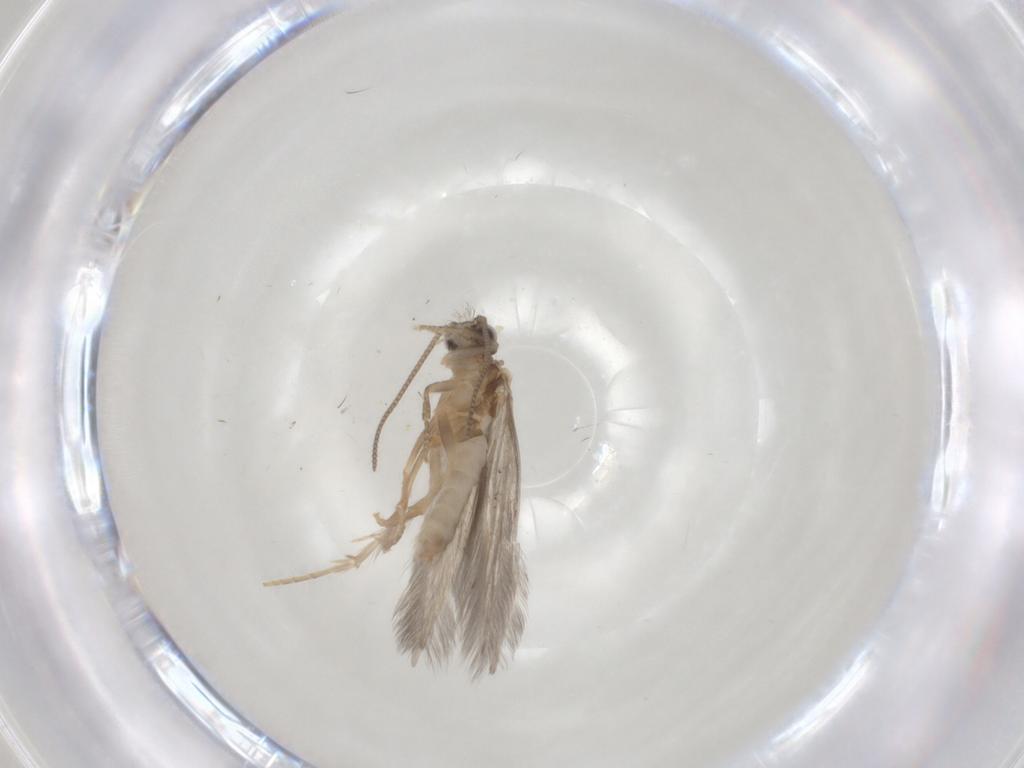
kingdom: Animalia
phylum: Arthropoda
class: Insecta
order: Trichoptera
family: Hydroptilidae
